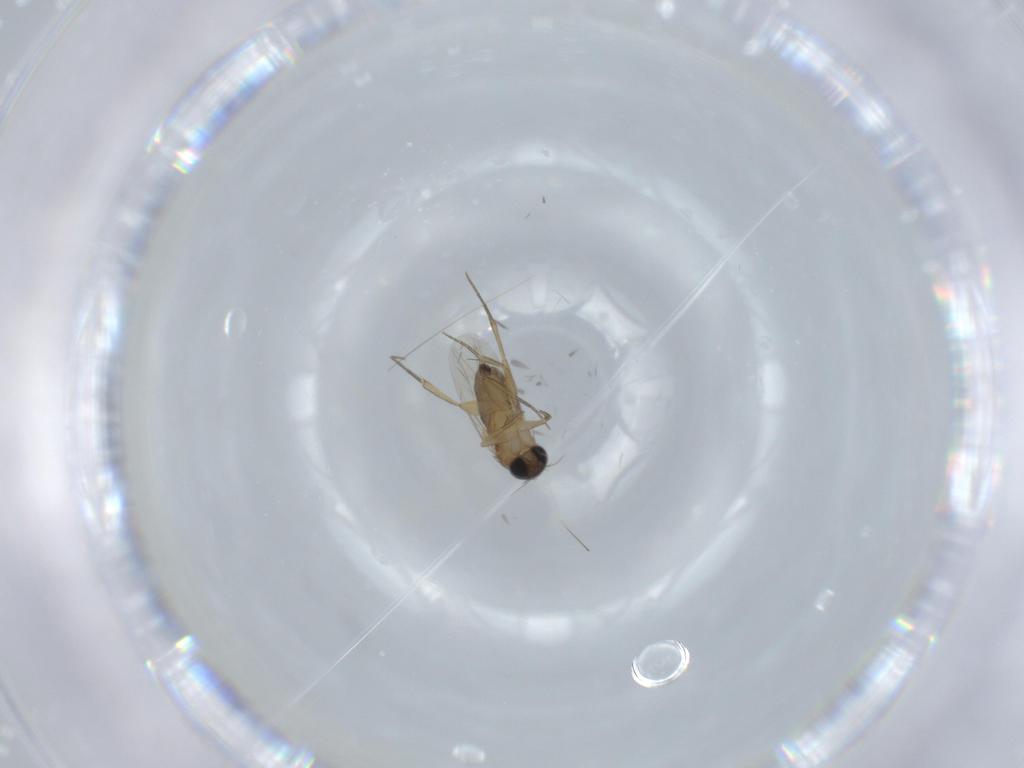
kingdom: Animalia
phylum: Arthropoda
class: Insecta
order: Diptera
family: Phoridae
